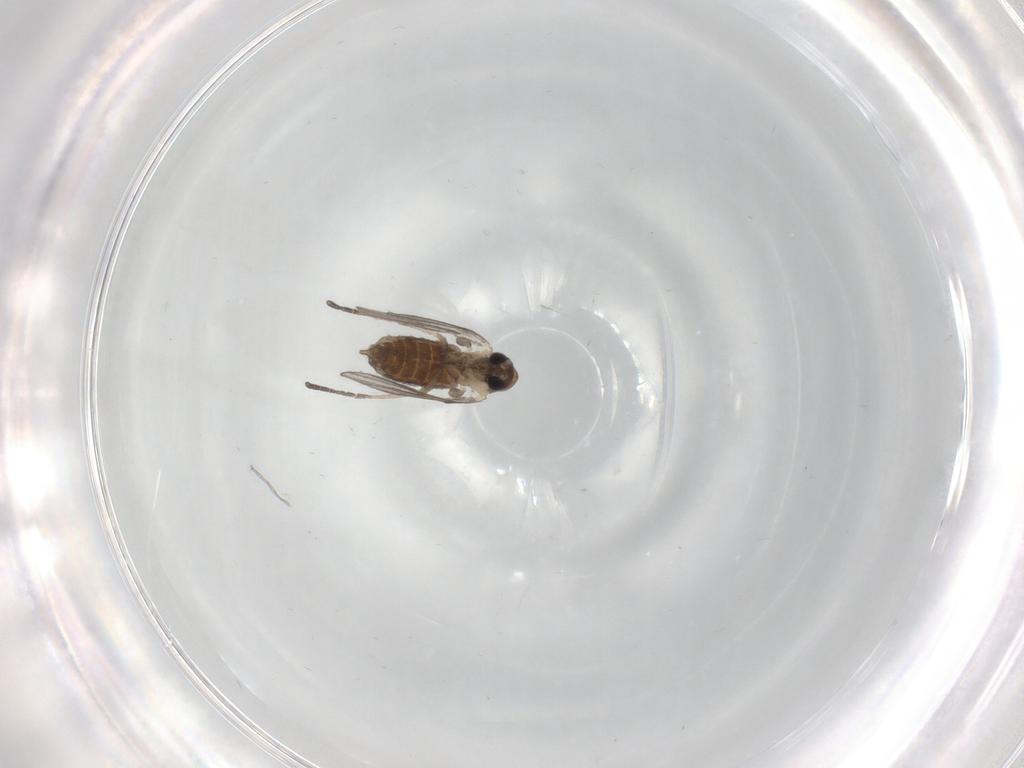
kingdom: Animalia
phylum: Arthropoda
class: Insecta
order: Diptera
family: Psychodidae
